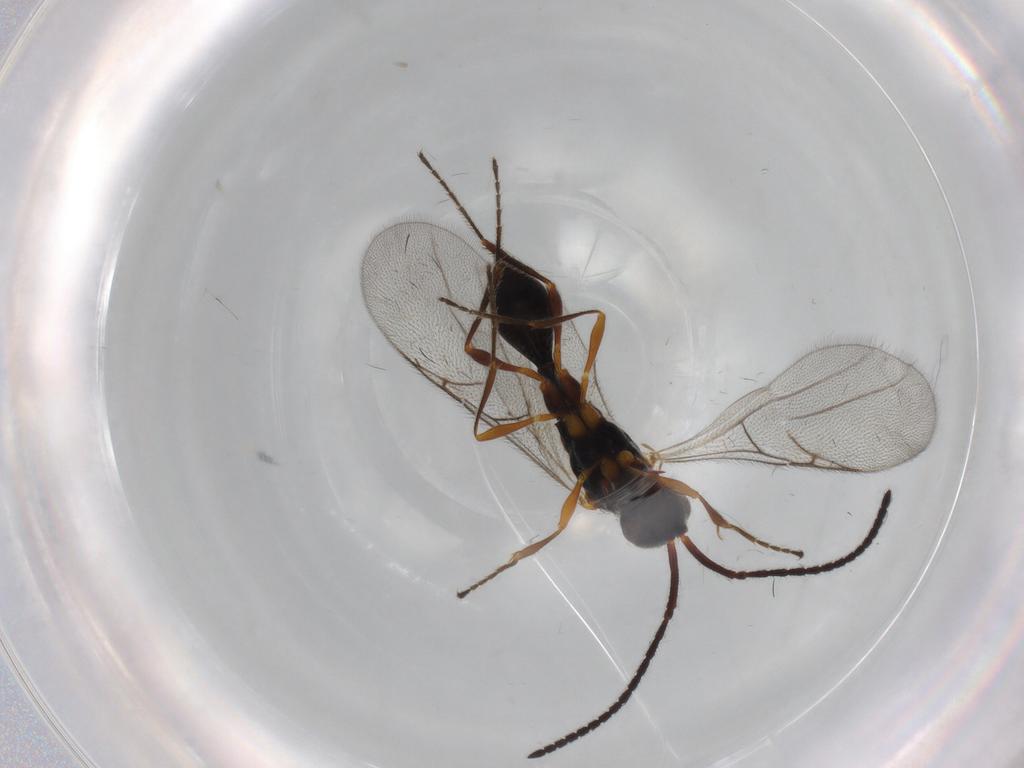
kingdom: Animalia
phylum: Arthropoda
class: Insecta
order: Hymenoptera
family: Diapriidae
